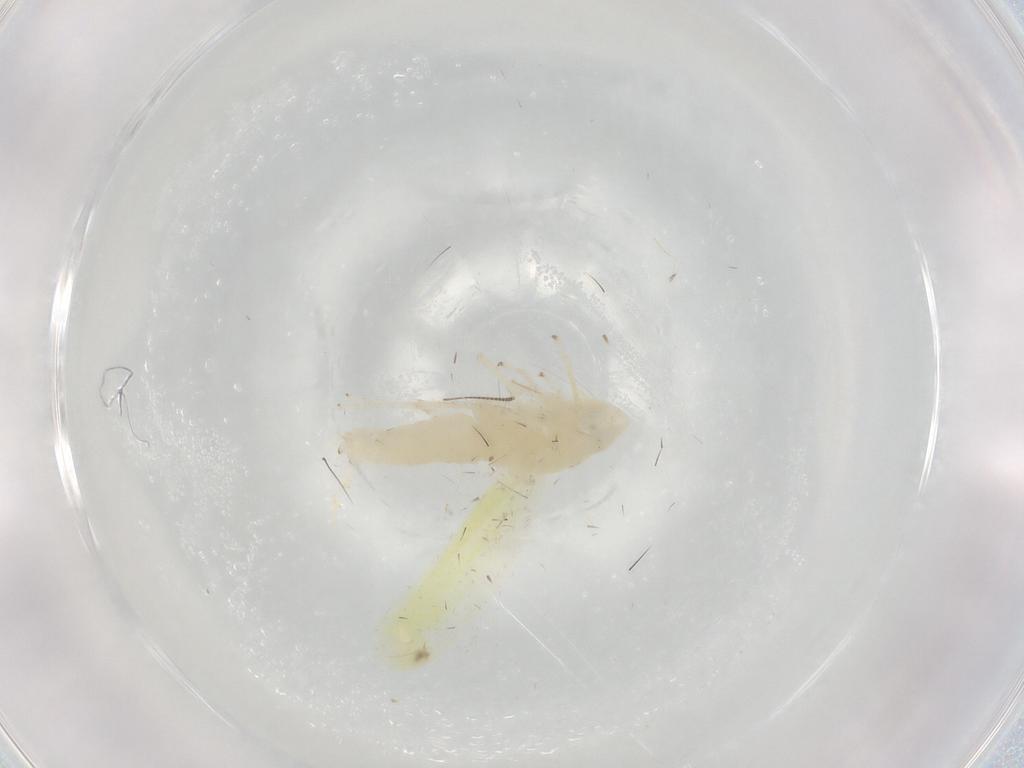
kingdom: Animalia
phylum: Arthropoda
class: Insecta
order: Hemiptera
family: Cicadellidae
